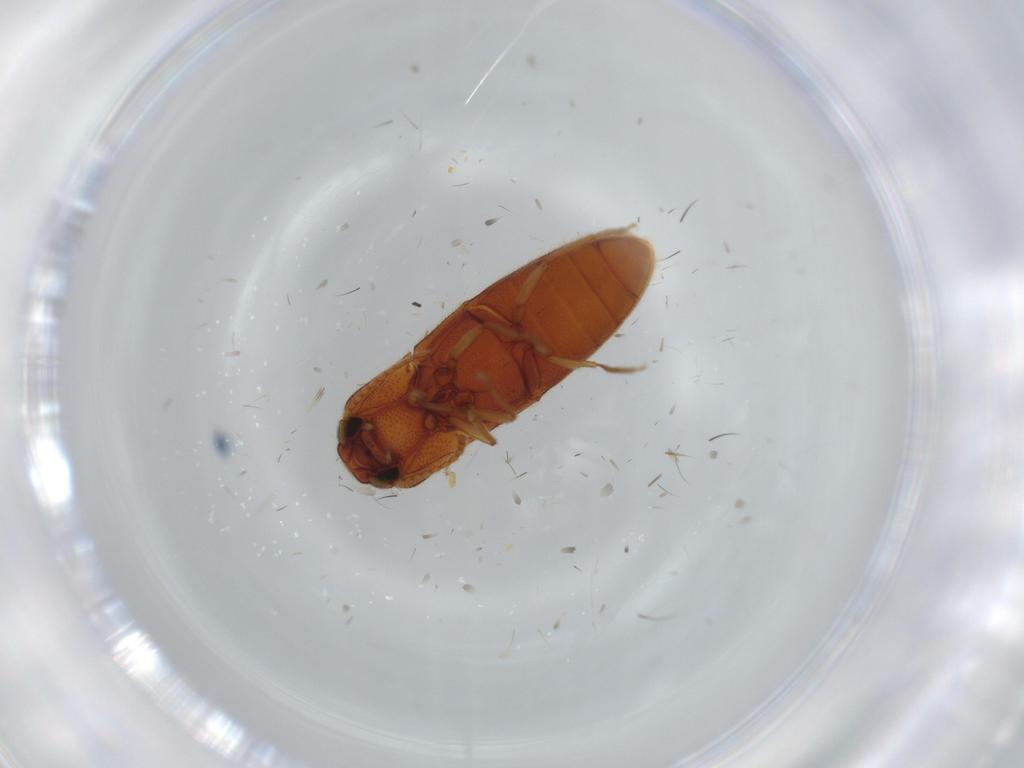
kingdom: Animalia
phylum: Arthropoda
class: Insecta
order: Coleoptera
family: Elateridae
